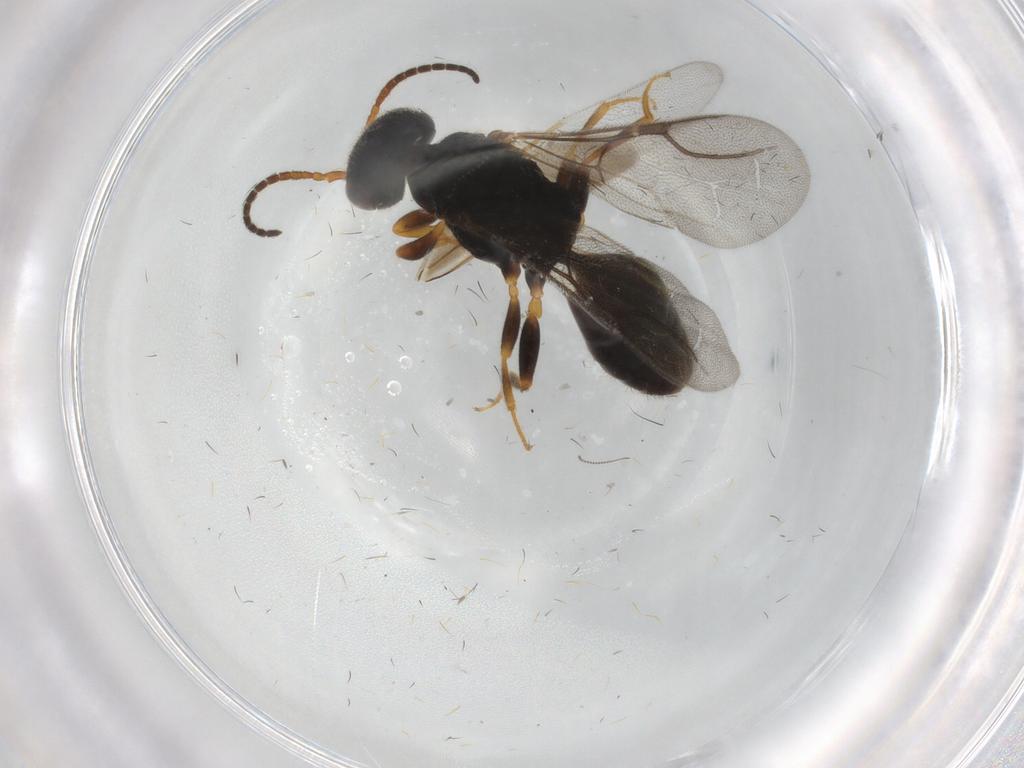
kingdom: Animalia
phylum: Arthropoda
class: Insecta
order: Hymenoptera
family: Bethylidae
